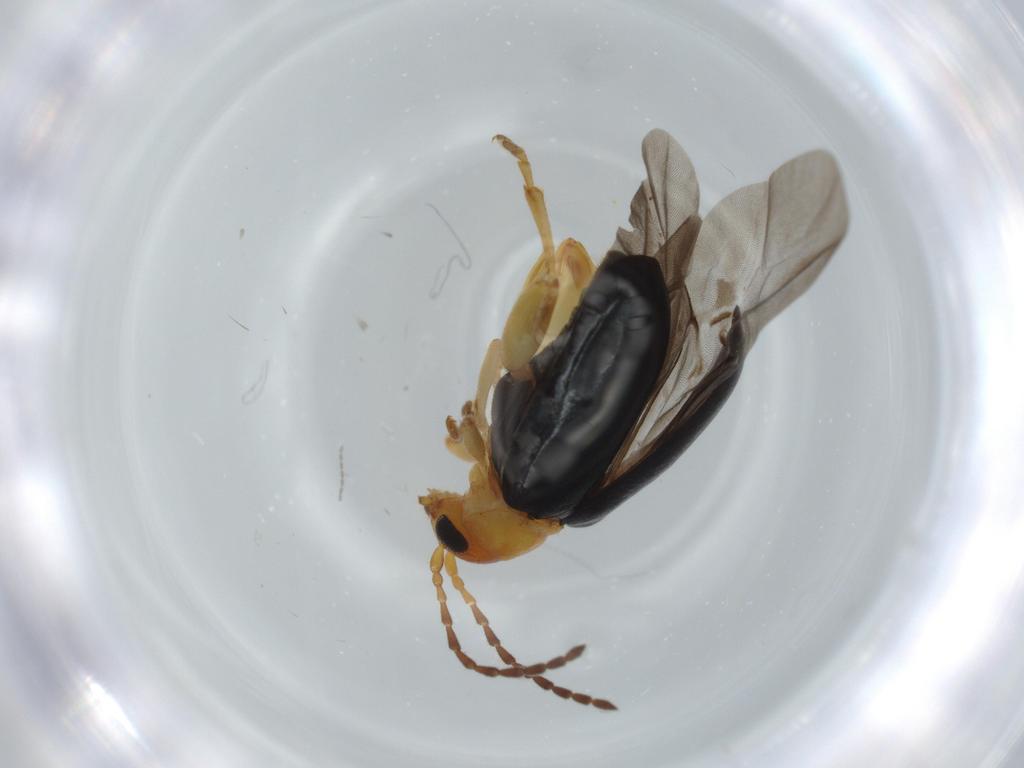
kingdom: Animalia
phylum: Arthropoda
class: Insecta
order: Coleoptera
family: Chrysomelidae
